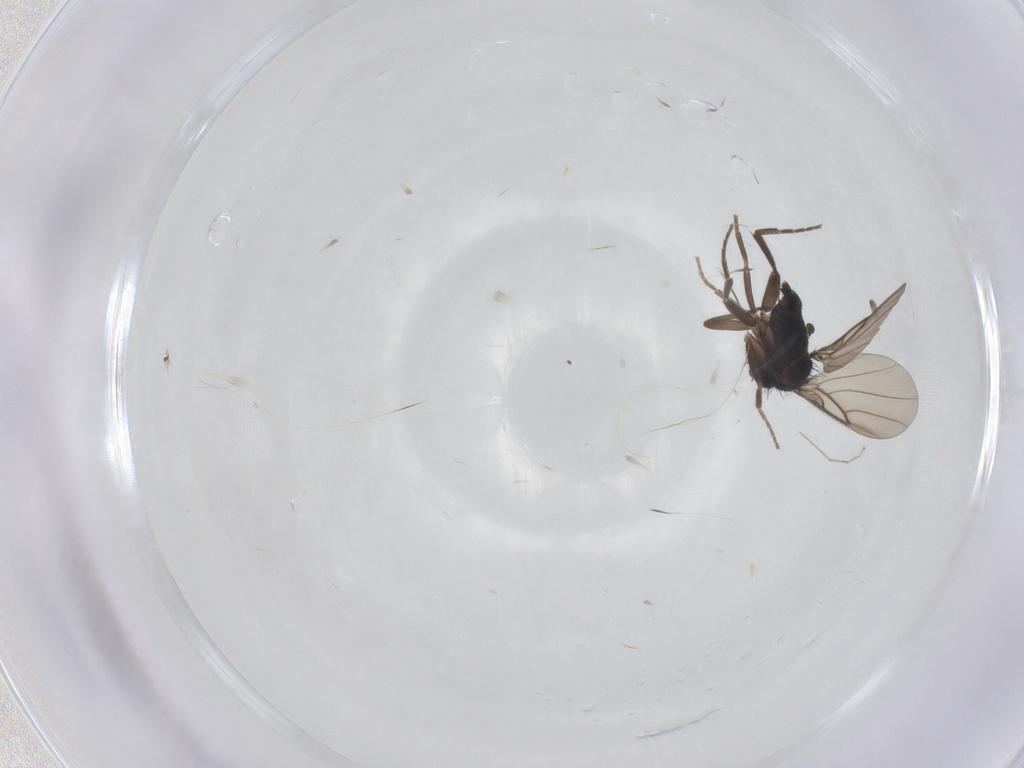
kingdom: Animalia
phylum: Arthropoda
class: Insecta
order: Diptera
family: Phoridae
